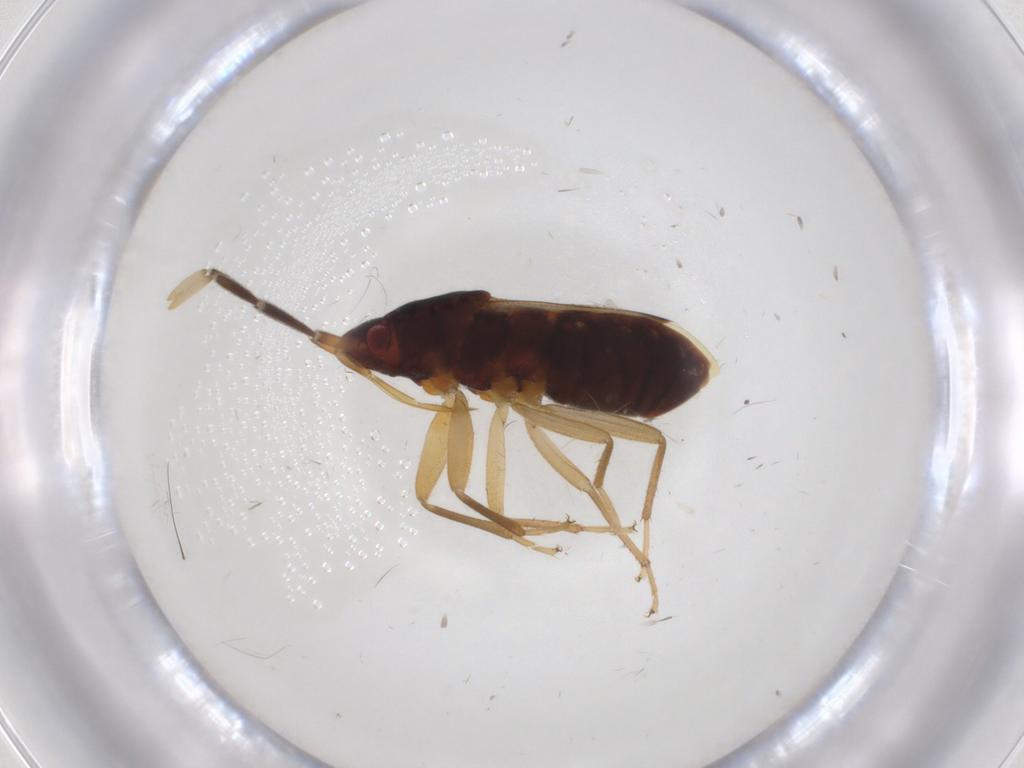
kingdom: Animalia
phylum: Arthropoda
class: Insecta
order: Hemiptera
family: Rhyparochromidae
